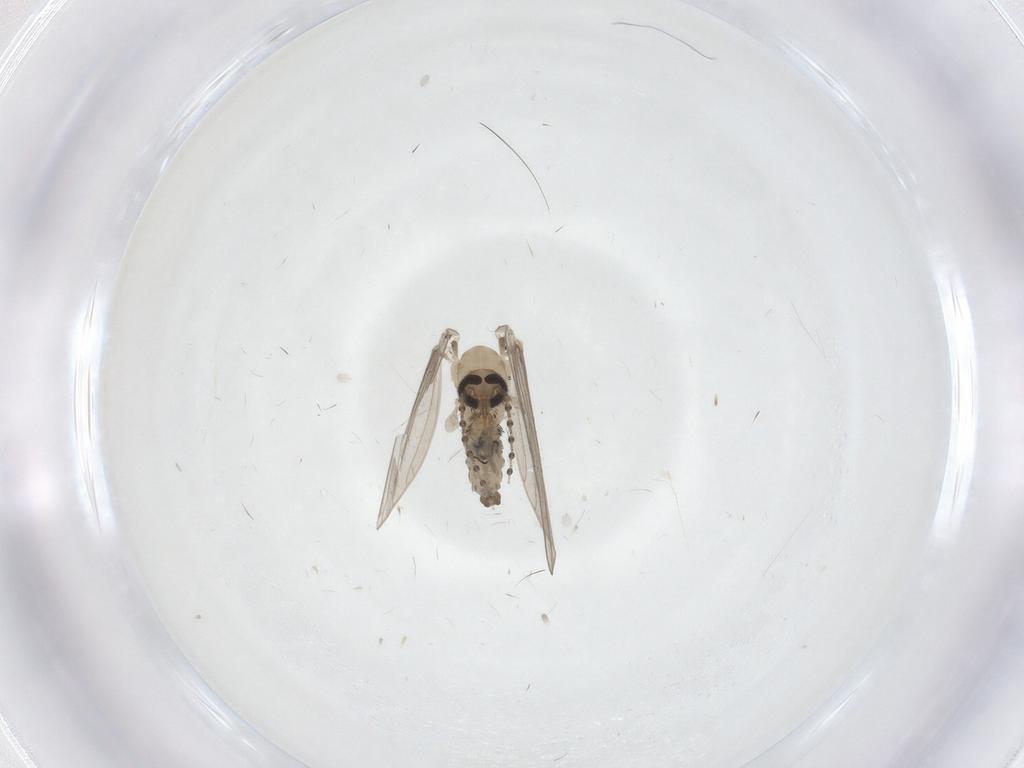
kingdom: Animalia
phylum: Arthropoda
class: Insecta
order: Diptera
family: Psychodidae
